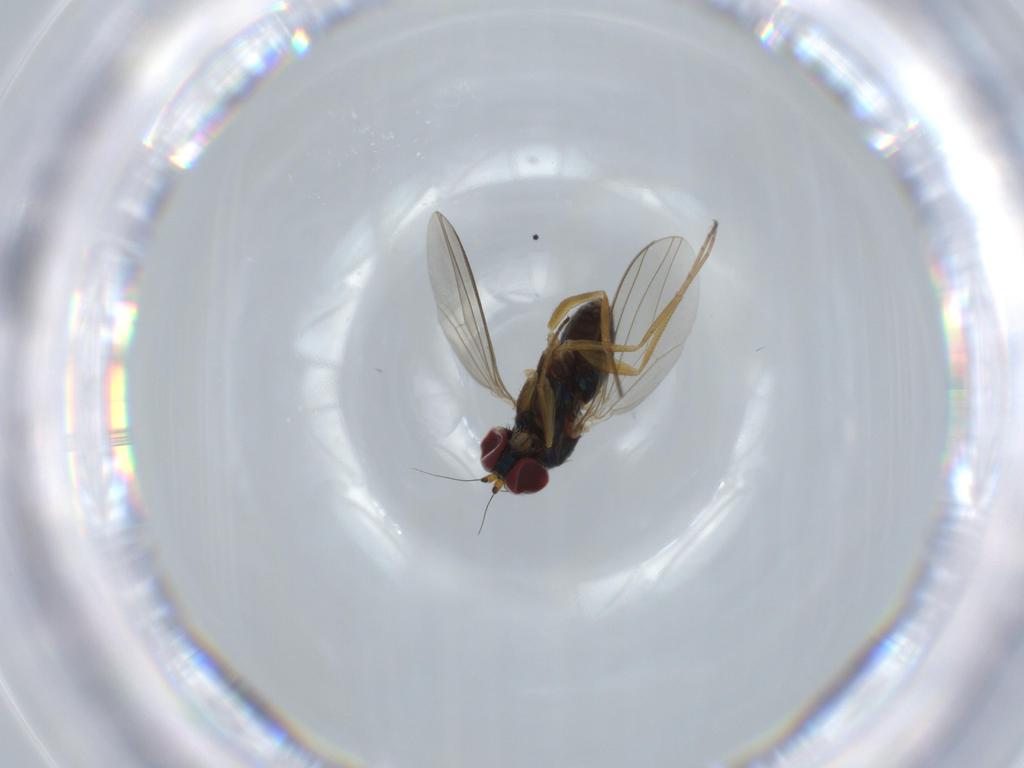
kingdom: Animalia
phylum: Arthropoda
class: Insecta
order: Diptera
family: Dolichopodidae
